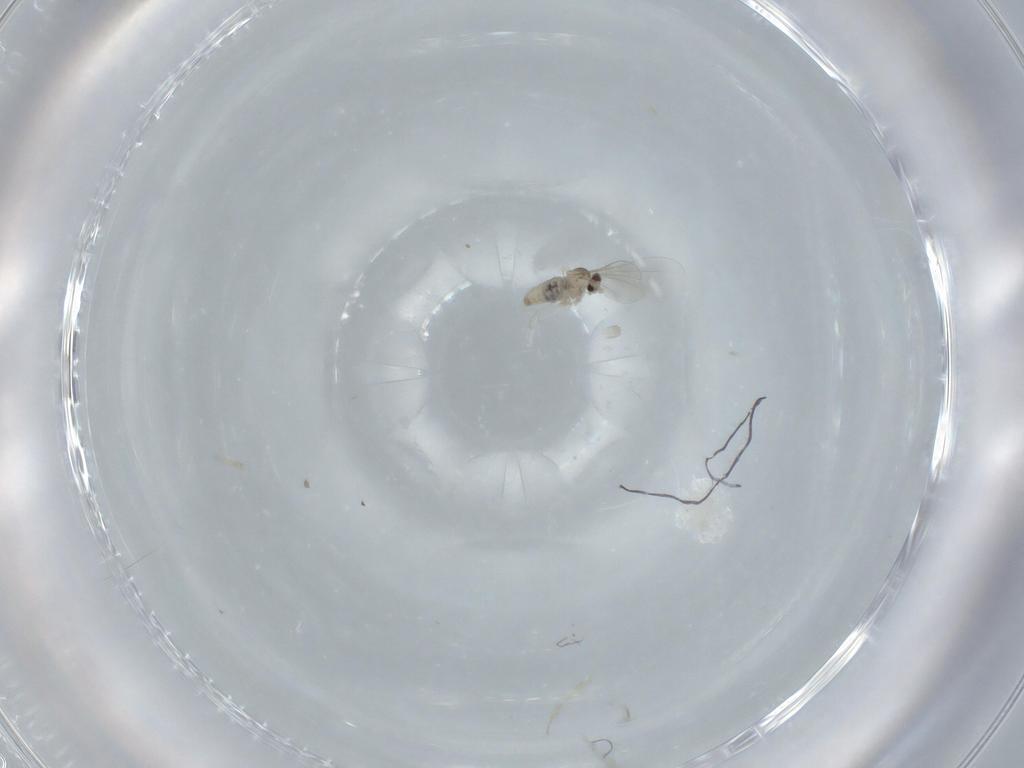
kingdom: Animalia
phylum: Arthropoda
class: Insecta
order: Diptera
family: Cecidomyiidae
